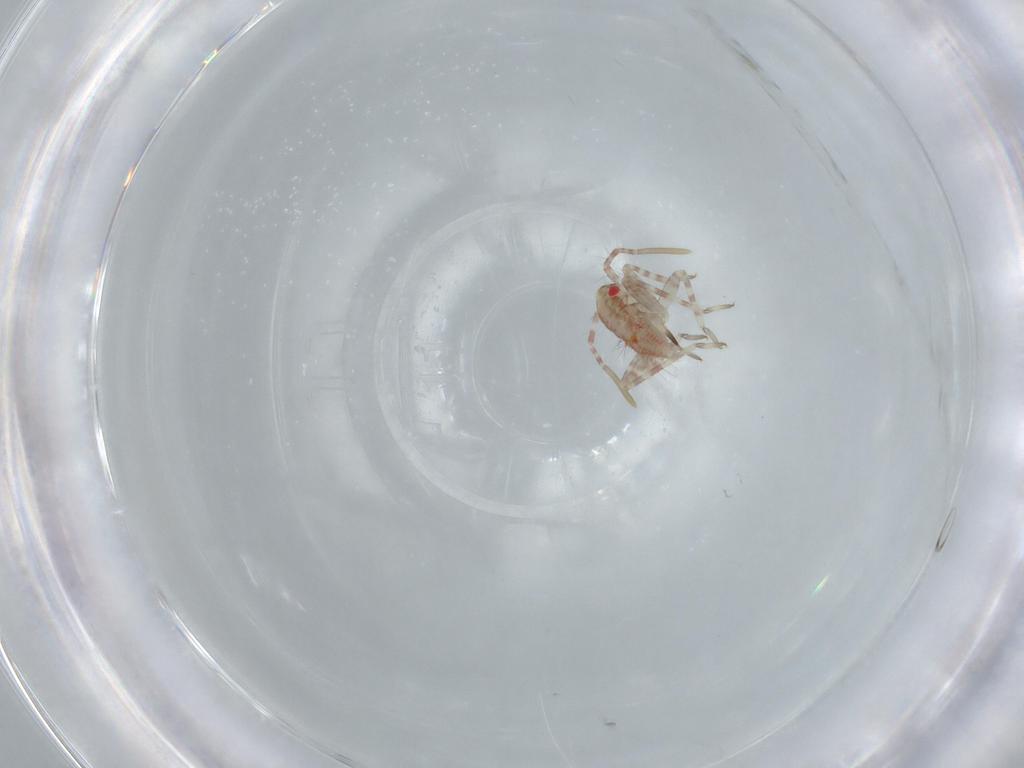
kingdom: Animalia
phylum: Arthropoda
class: Insecta
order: Hemiptera
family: Miridae
